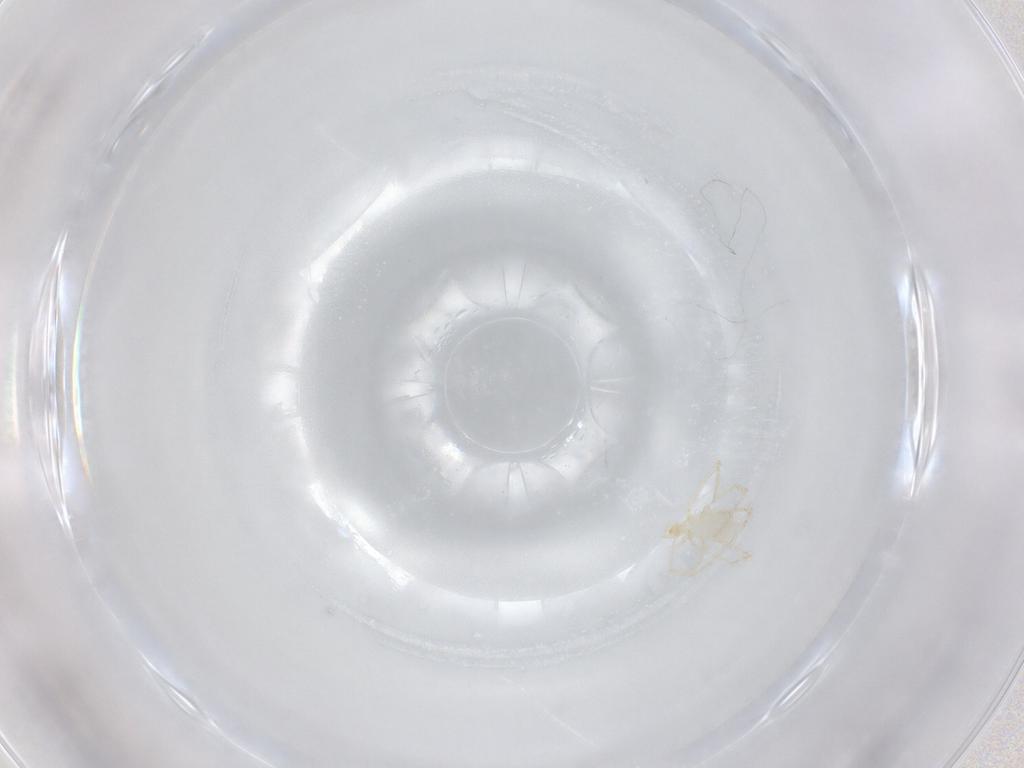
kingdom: Animalia
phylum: Arthropoda
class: Arachnida
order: Trombidiformes
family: Erythraeidae
